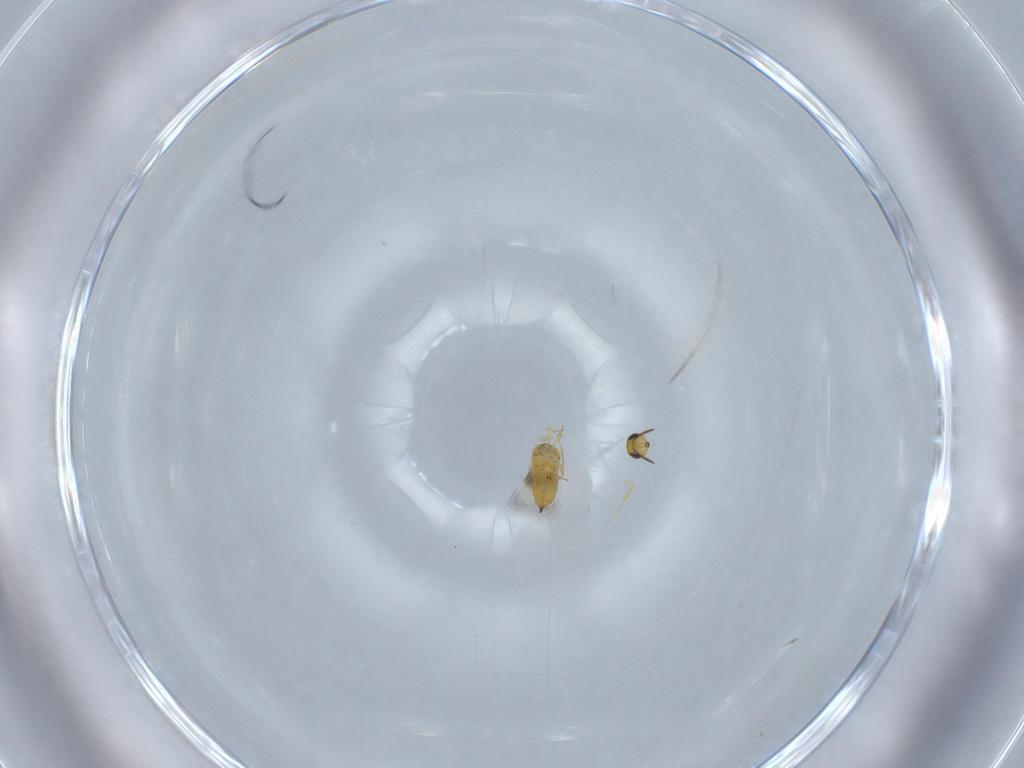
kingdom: Animalia
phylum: Arthropoda
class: Insecta
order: Hymenoptera
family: Signiphoridae
